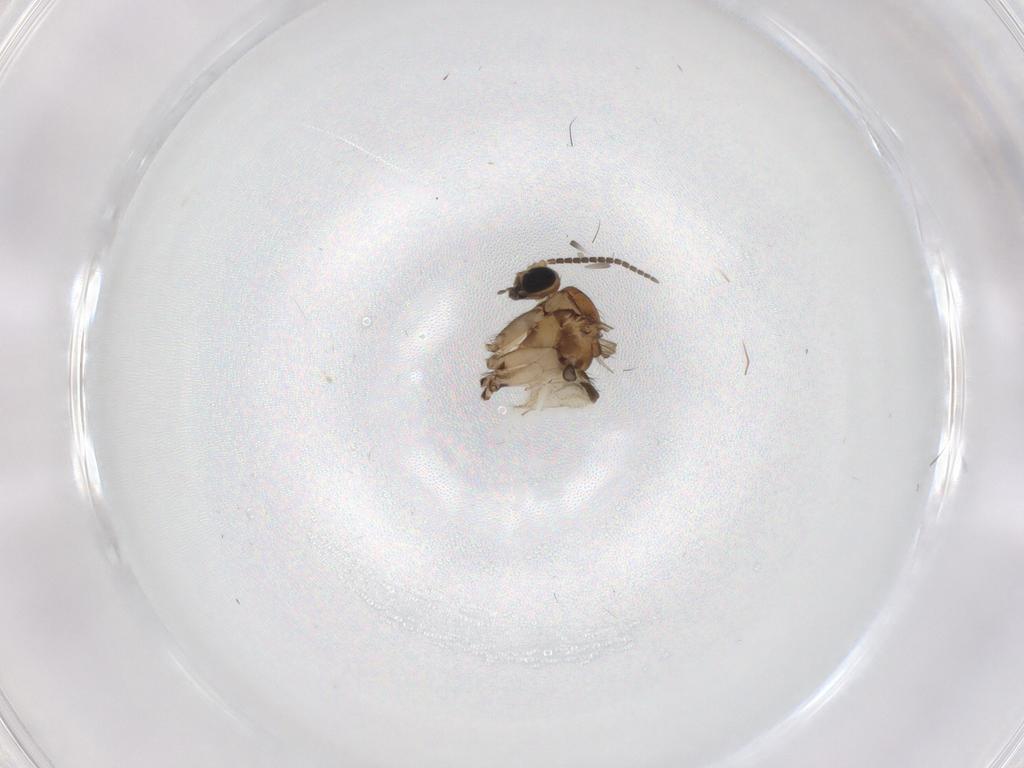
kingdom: Animalia
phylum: Arthropoda
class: Insecta
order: Diptera
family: Sciaridae
